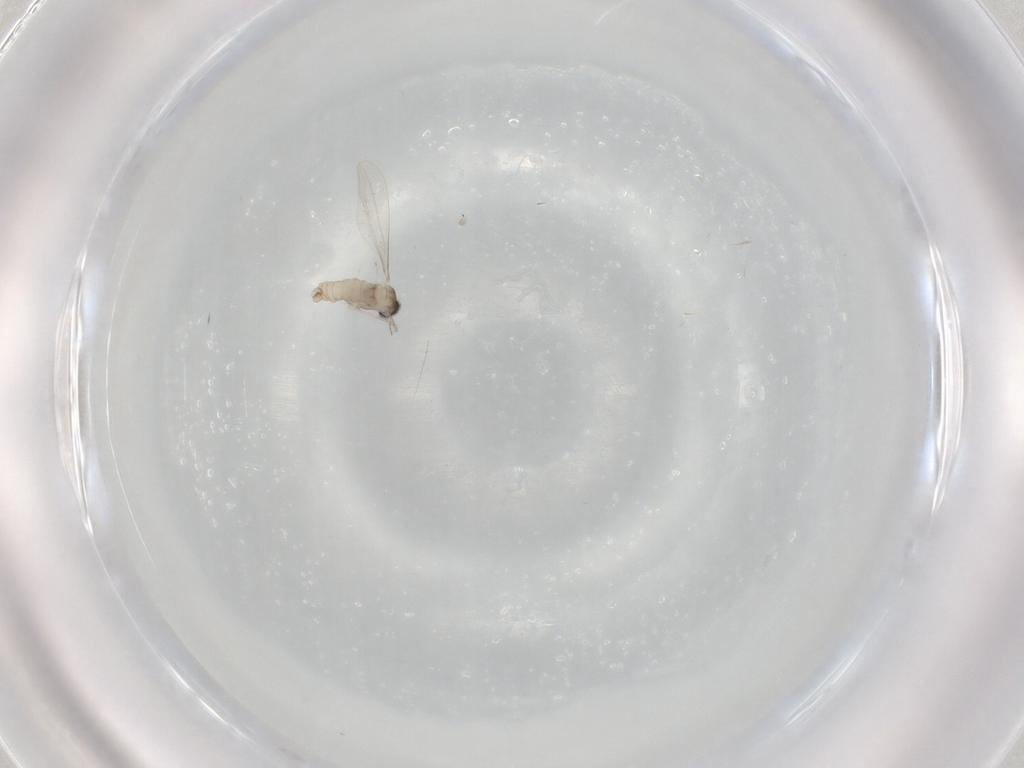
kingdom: Animalia
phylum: Arthropoda
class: Insecta
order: Diptera
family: Cecidomyiidae
